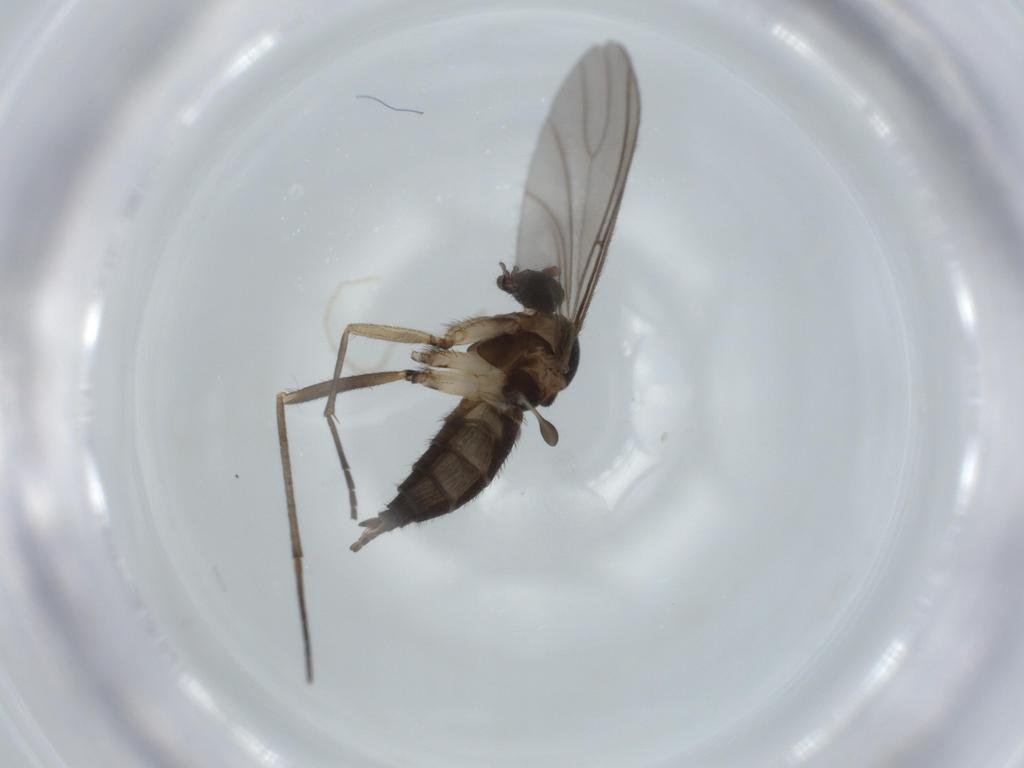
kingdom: Animalia
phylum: Arthropoda
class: Insecta
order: Diptera
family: Sciaridae
